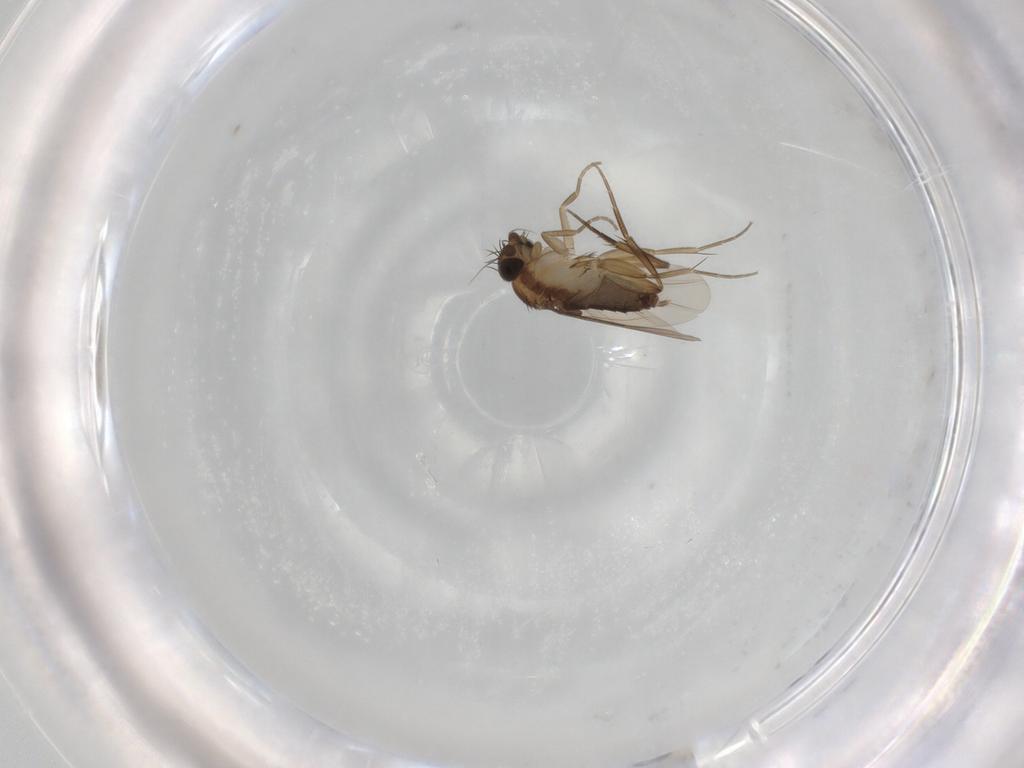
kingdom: Animalia
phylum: Arthropoda
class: Insecta
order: Diptera
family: Phoridae
